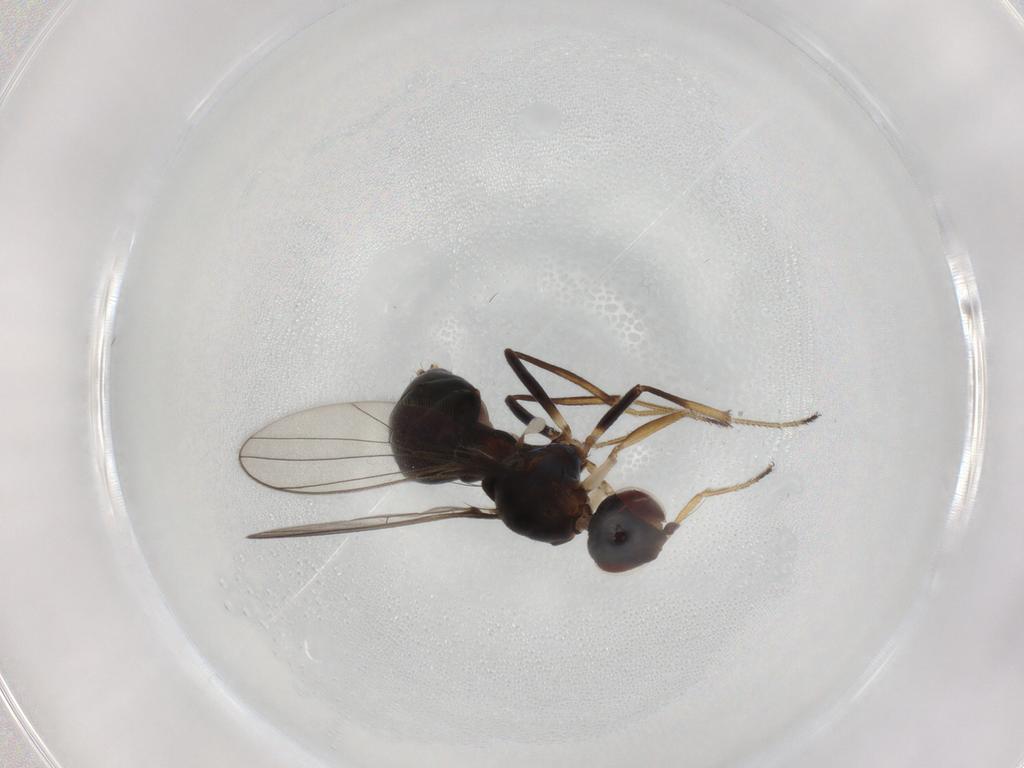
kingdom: Animalia
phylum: Arthropoda
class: Insecta
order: Diptera
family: Sepsidae
